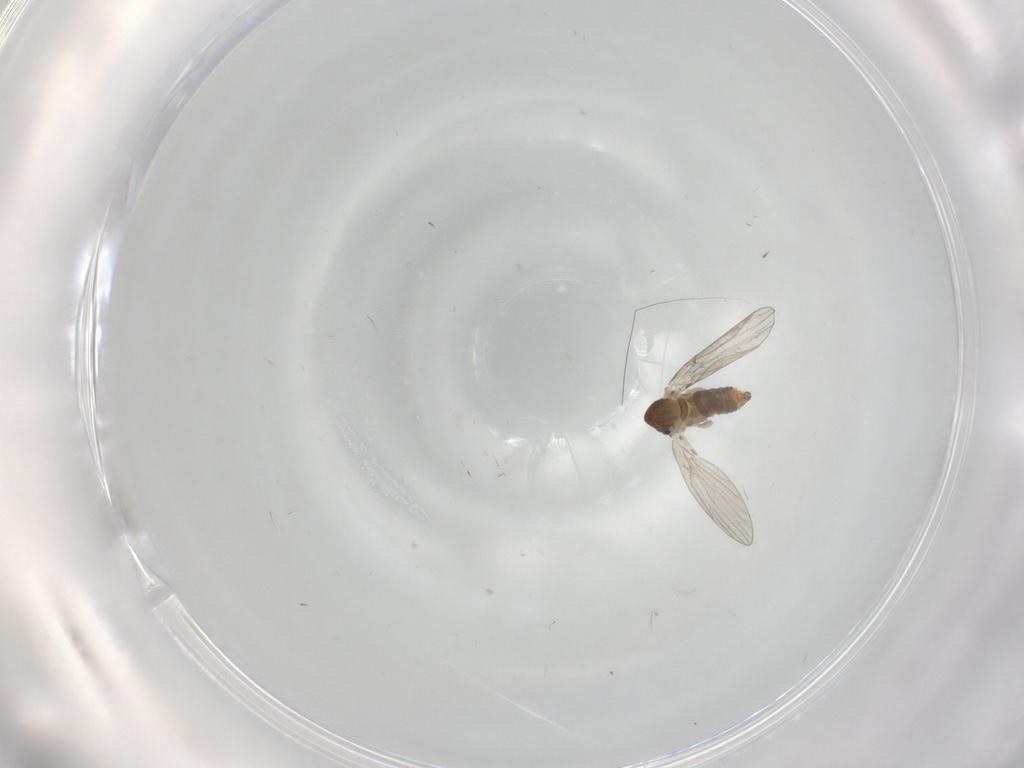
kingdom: Animalia
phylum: Arthropoda
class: Insecta
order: Diptera
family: Cecidomyiidae
